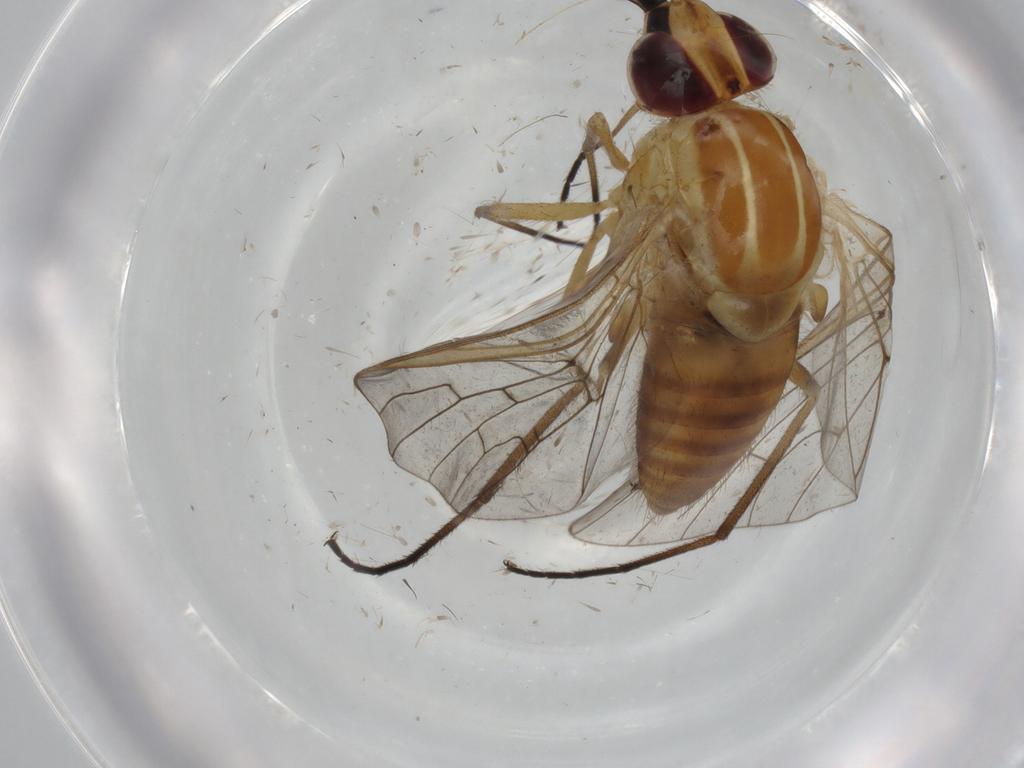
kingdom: Animalia
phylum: Arthropoda
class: Insecta
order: Diptera
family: Bombyliidae
